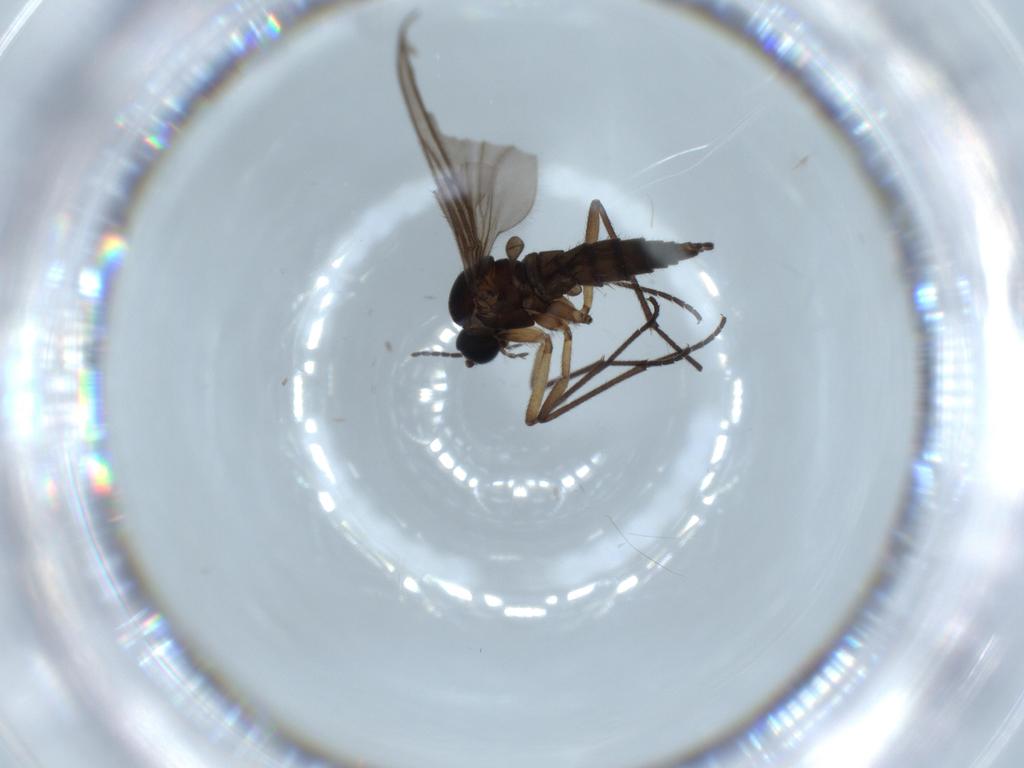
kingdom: Animalia
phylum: Arthropoda
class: Insecta
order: Diptera
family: Sciaridae
